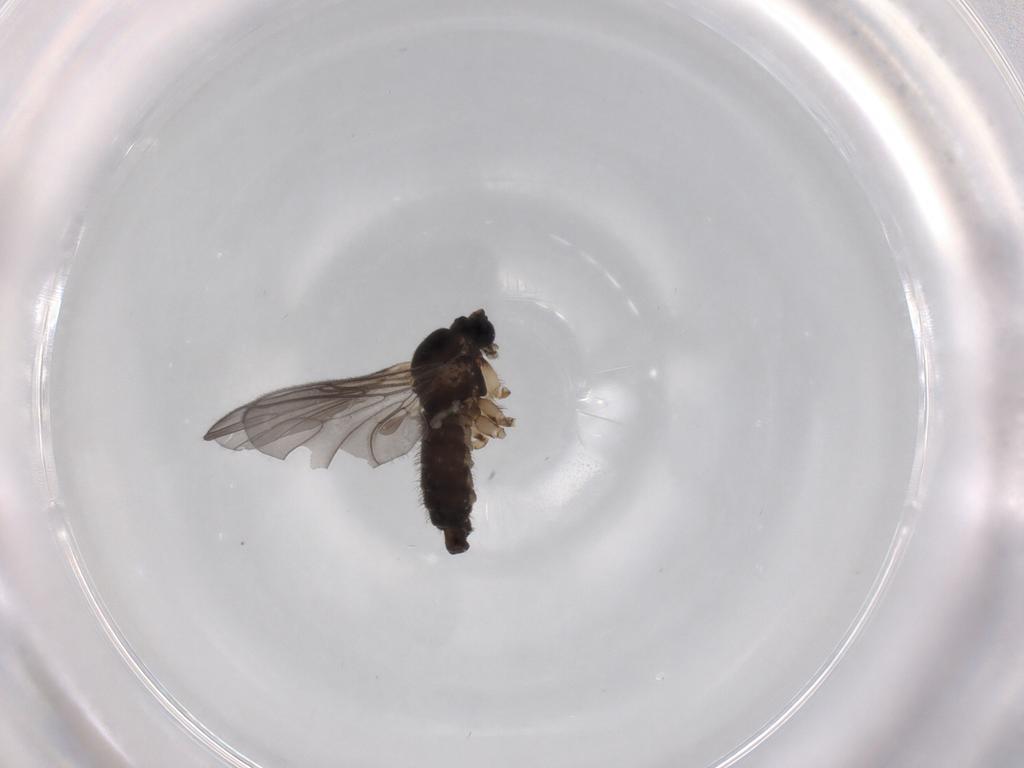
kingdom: Animalia
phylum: Arthropoda
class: Insecta
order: Diptera
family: Sciaridae
